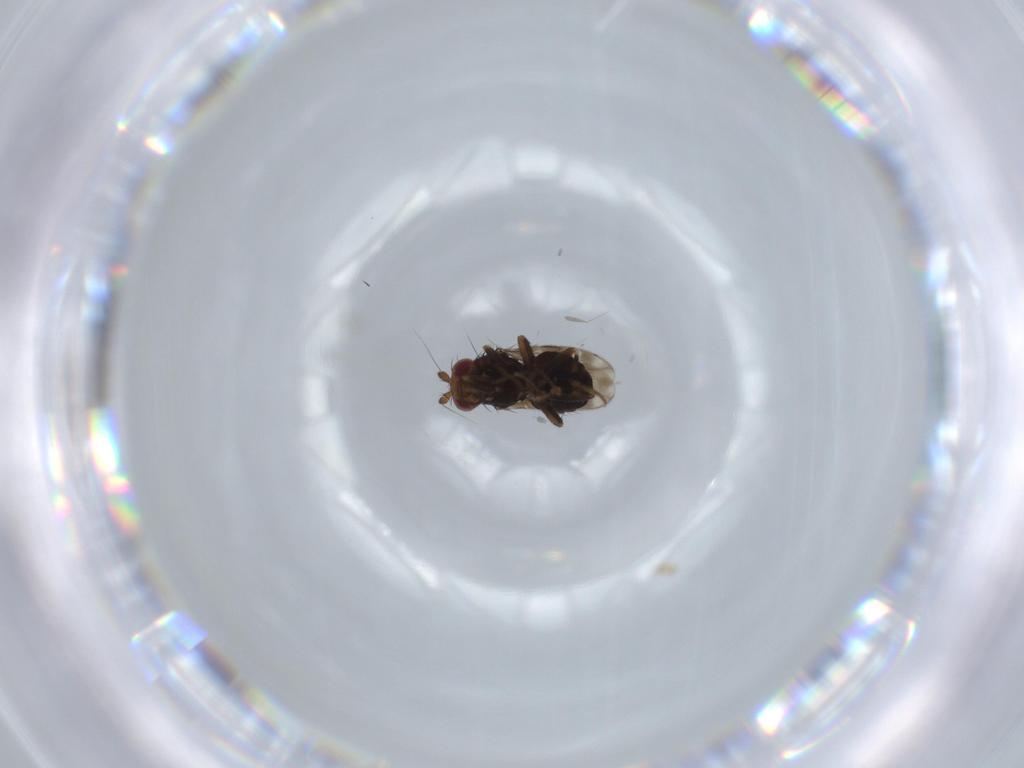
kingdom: Animalia
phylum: Arthropoda
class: Insecta
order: Diptera
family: Sphaeroceridae
